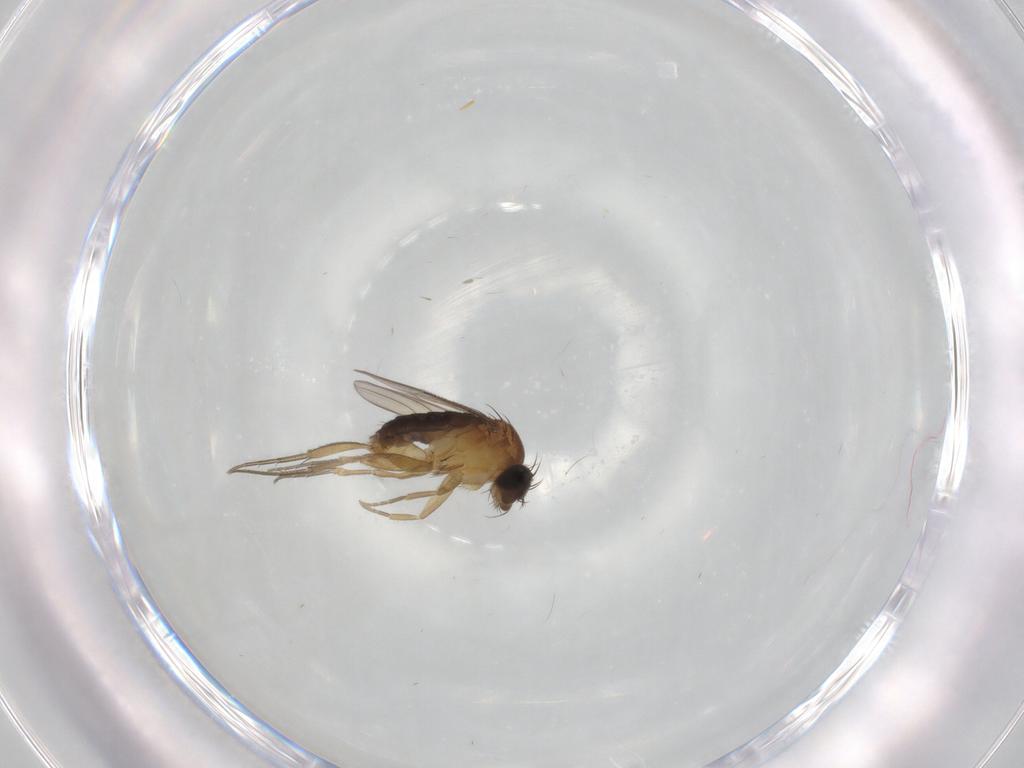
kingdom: Animalia
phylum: Arthropoda
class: Insecta
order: Diptera
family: Phoridae
